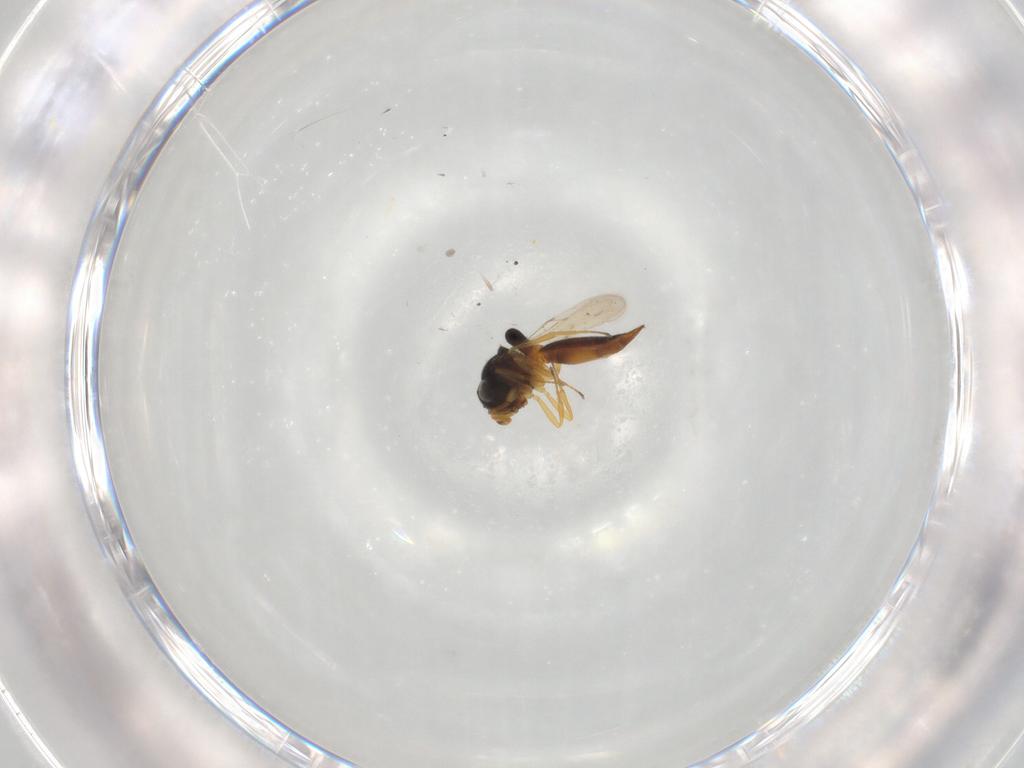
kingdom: Animalia
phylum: Arthropoda
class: Insecta
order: Hymenoptera
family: Scelionidae
